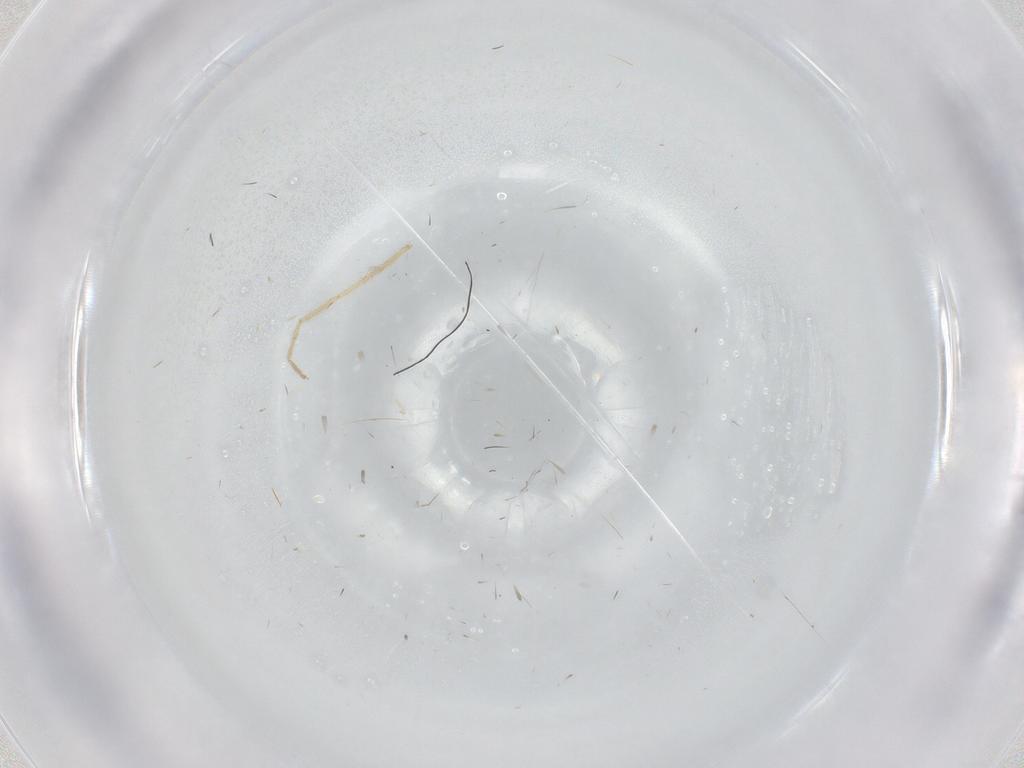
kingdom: Animalia
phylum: Arthropoda
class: Insecta
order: Neuroptera
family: Coniopterygidae
